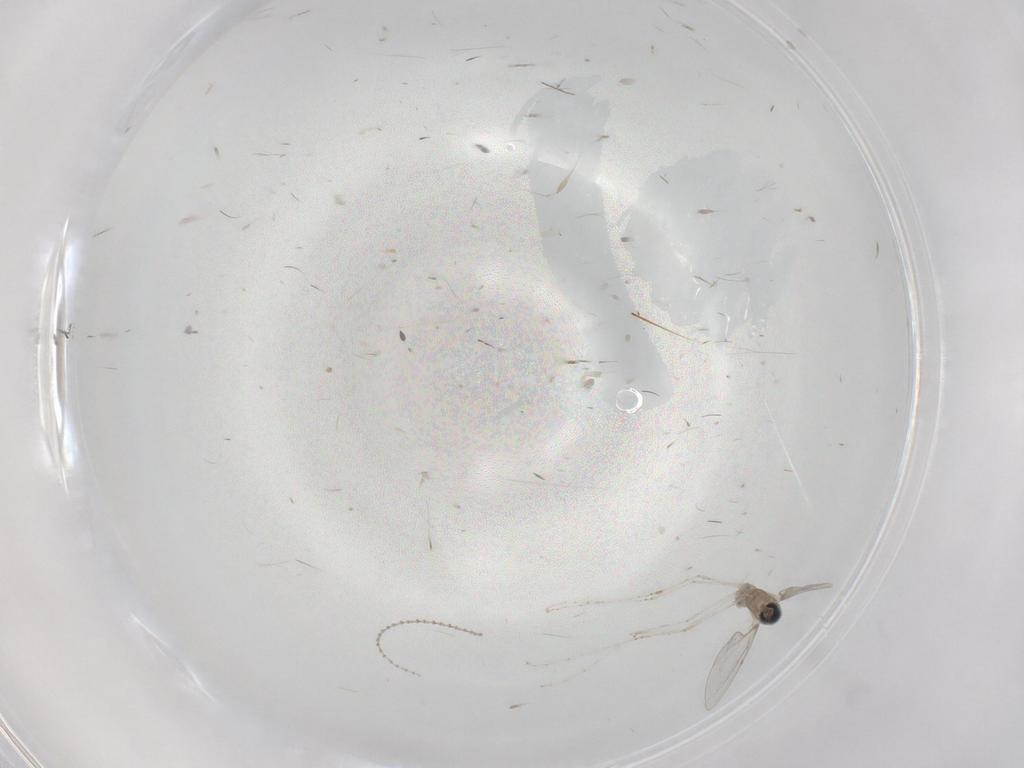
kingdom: Animalia
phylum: Arthropoda
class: Insecta
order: Diptera
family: Cecidomyiidae
